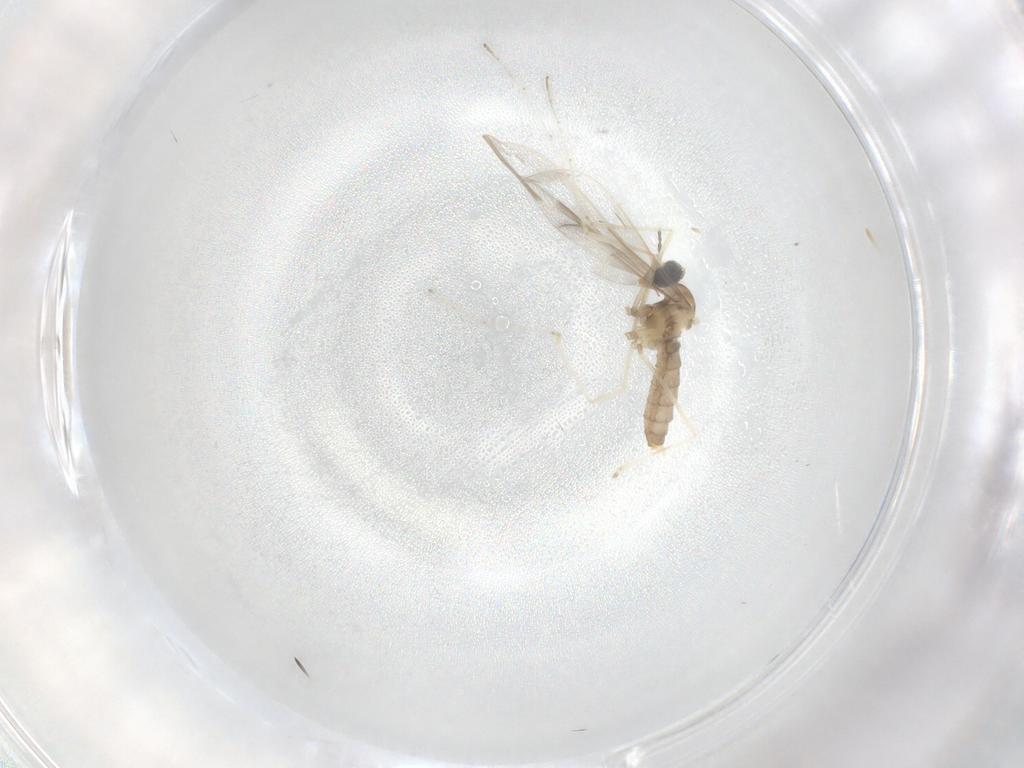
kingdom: Animalia
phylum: Arthropoda
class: Insecta
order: Diptera
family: Cecidomyiidae
